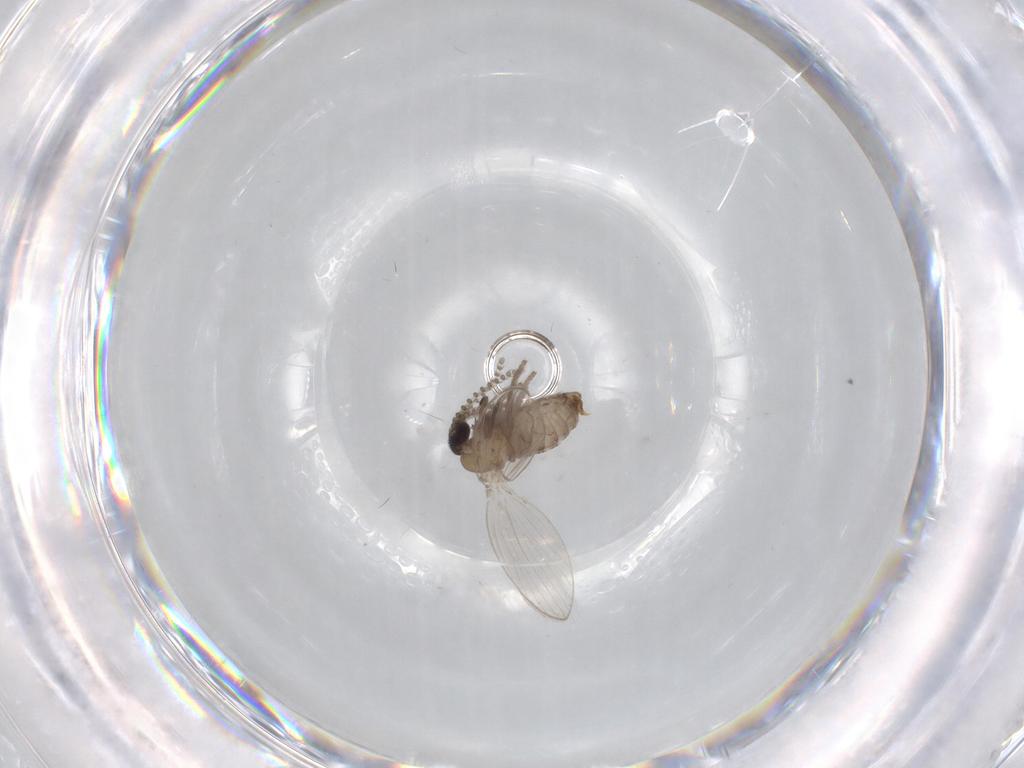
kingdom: Animalia
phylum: Arthropoda
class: Insecta
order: Diptera
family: Psychodidae
